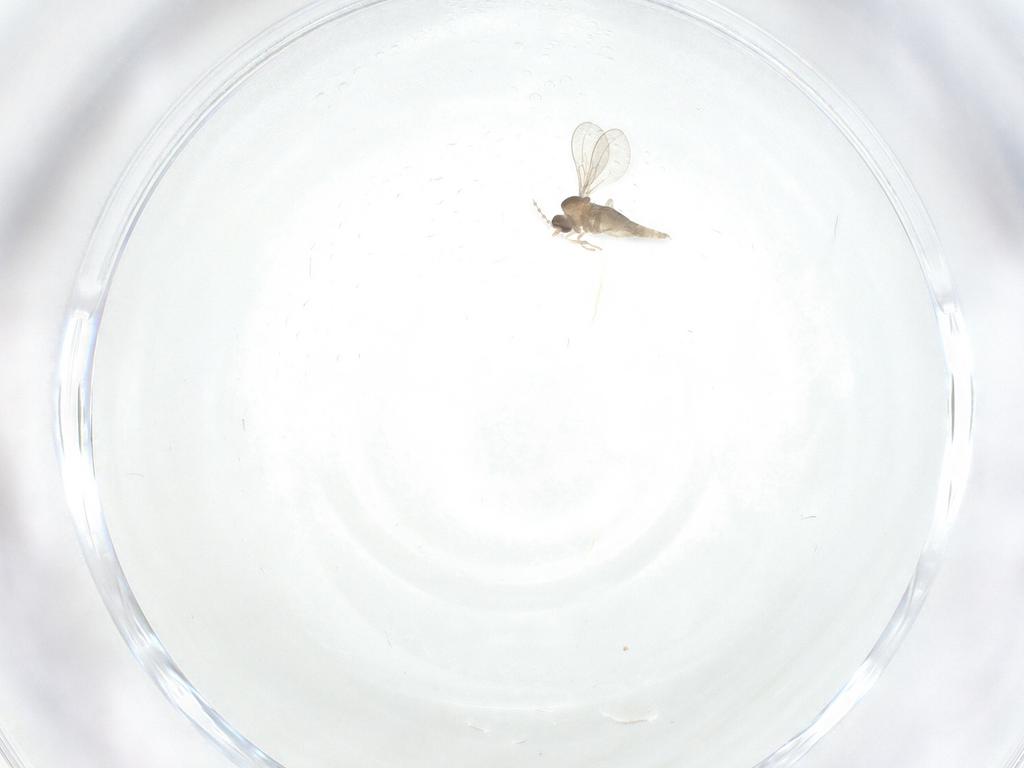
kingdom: Animalia
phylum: Arthropoda
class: Insecta
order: Diptera
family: Cecidomyiidae
